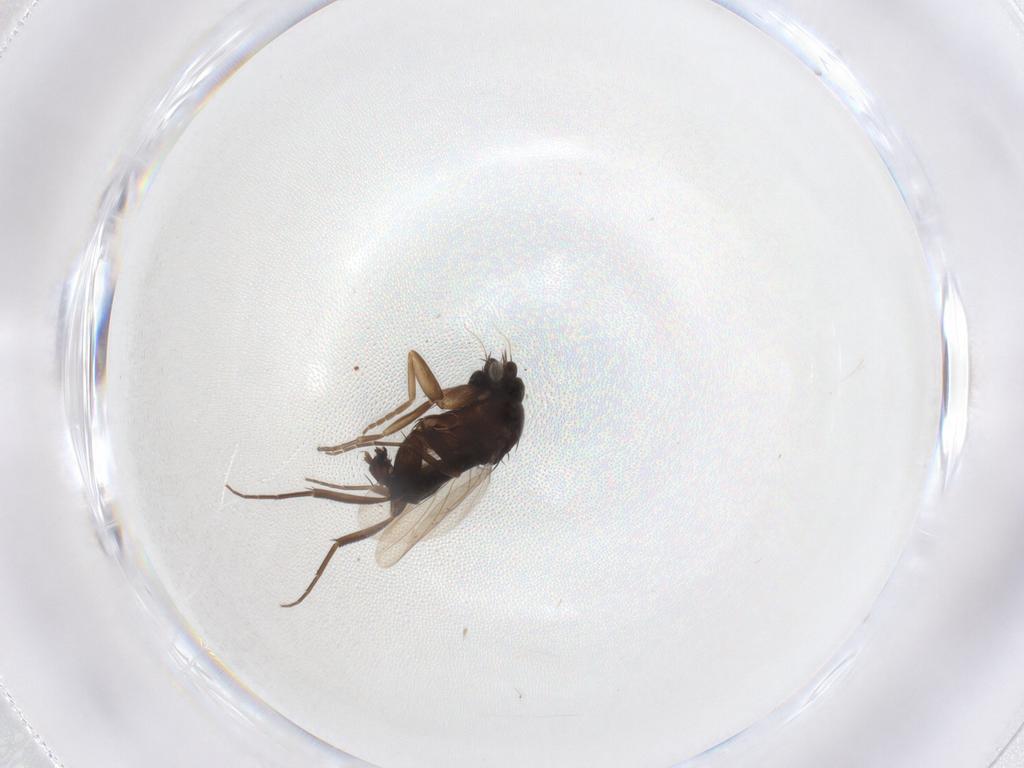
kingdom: Animalia
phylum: Arthropoda
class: Insecta
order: Diptera
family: Phoridae
